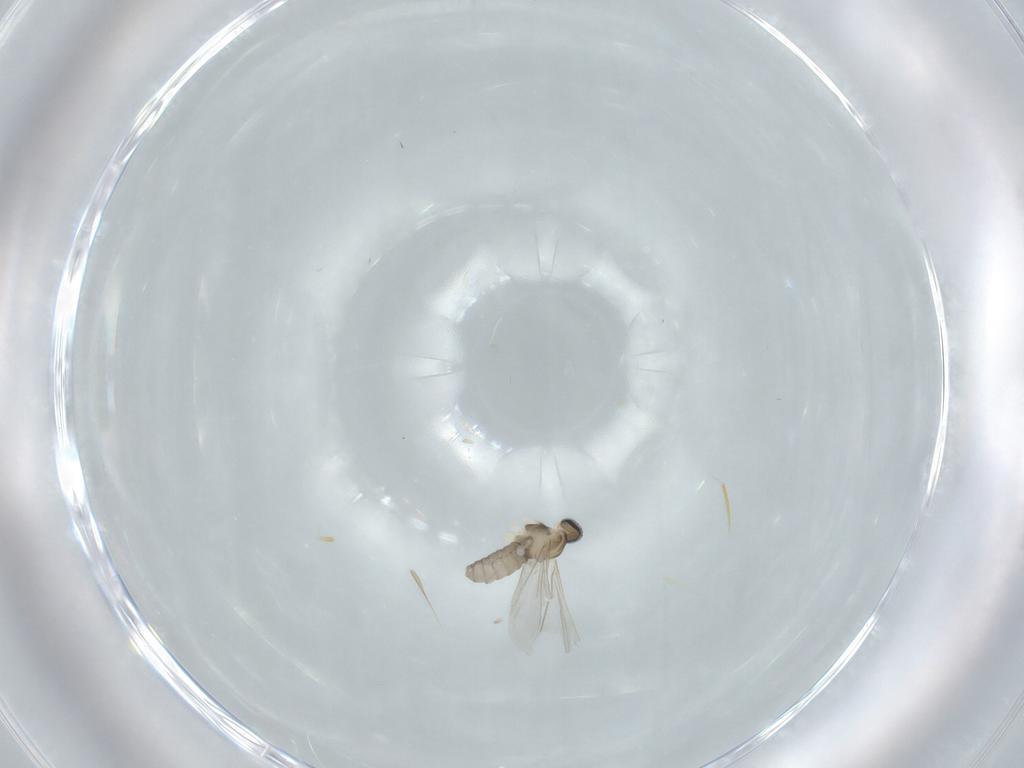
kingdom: Animalia
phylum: Arthropoda
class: Insecta
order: Diptera
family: Cecidomyiidae
